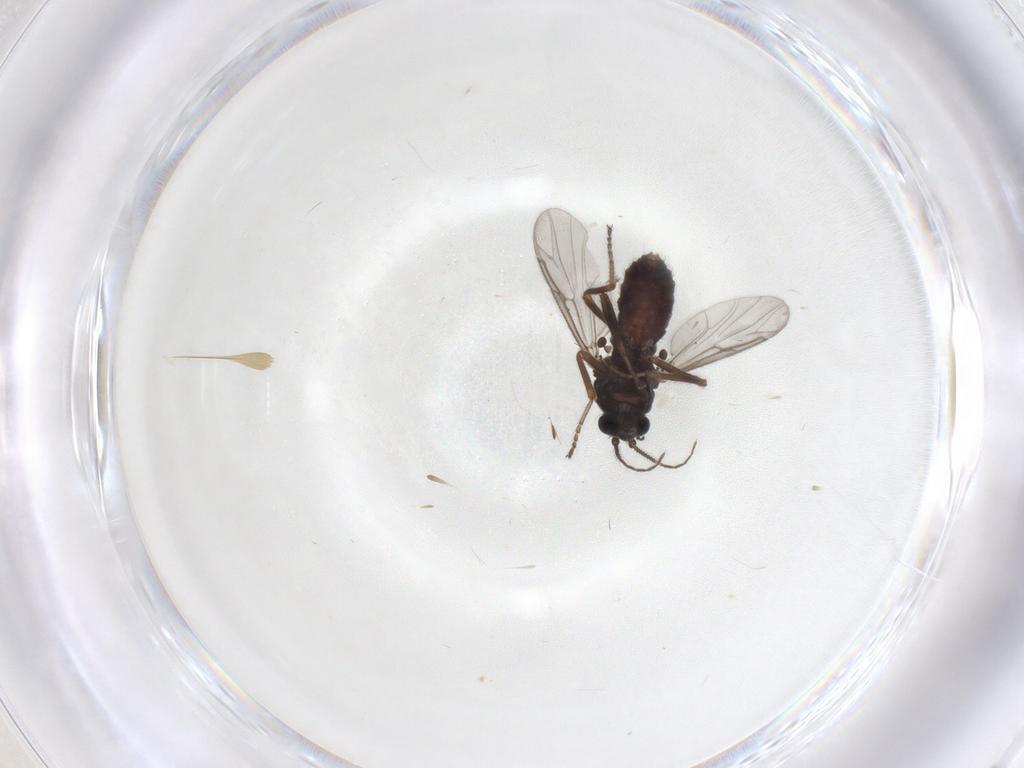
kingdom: Animalia
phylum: Arthropoda
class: Insecta
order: Diptera
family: Ceratopogonidae
